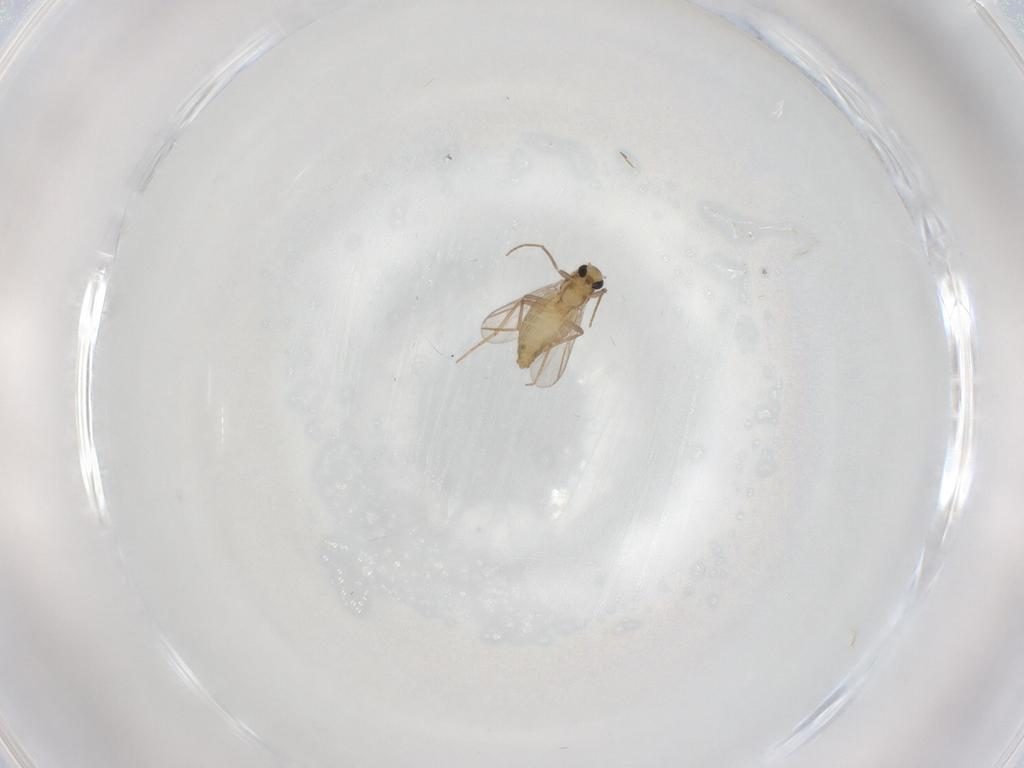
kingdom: Animalia
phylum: Arthropoda
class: Insecta
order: Diptera
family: Chironomidae
